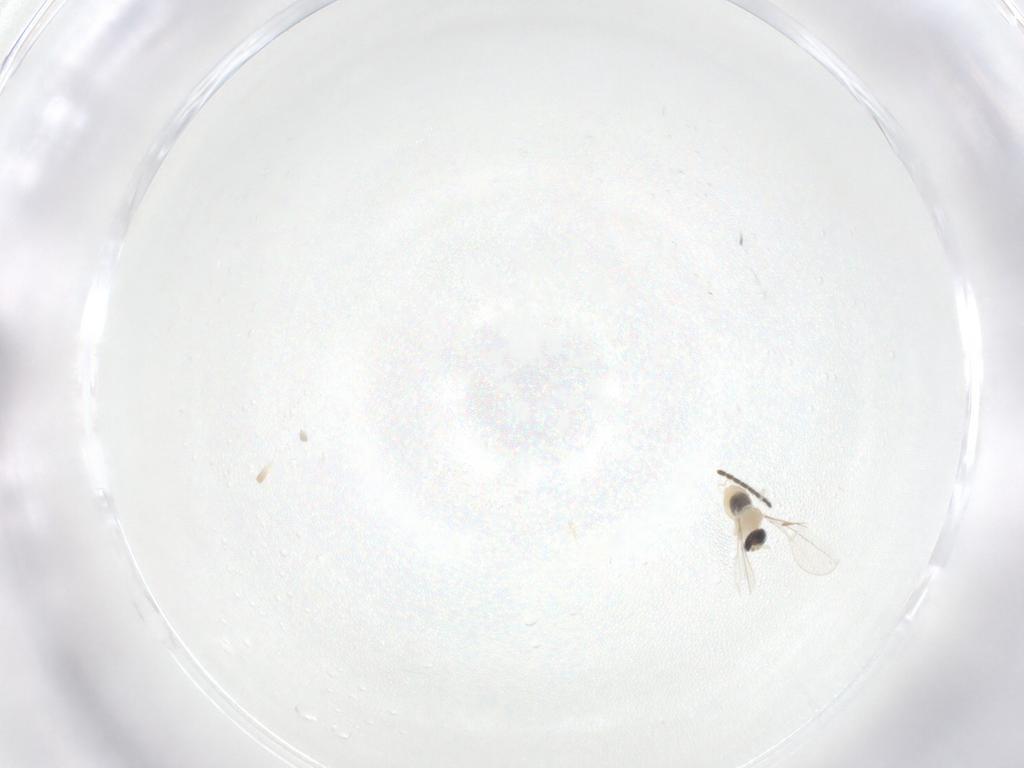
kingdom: Animalia
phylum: Arthropoda
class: Insecta
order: Diptera
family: Cecidomyiidae
